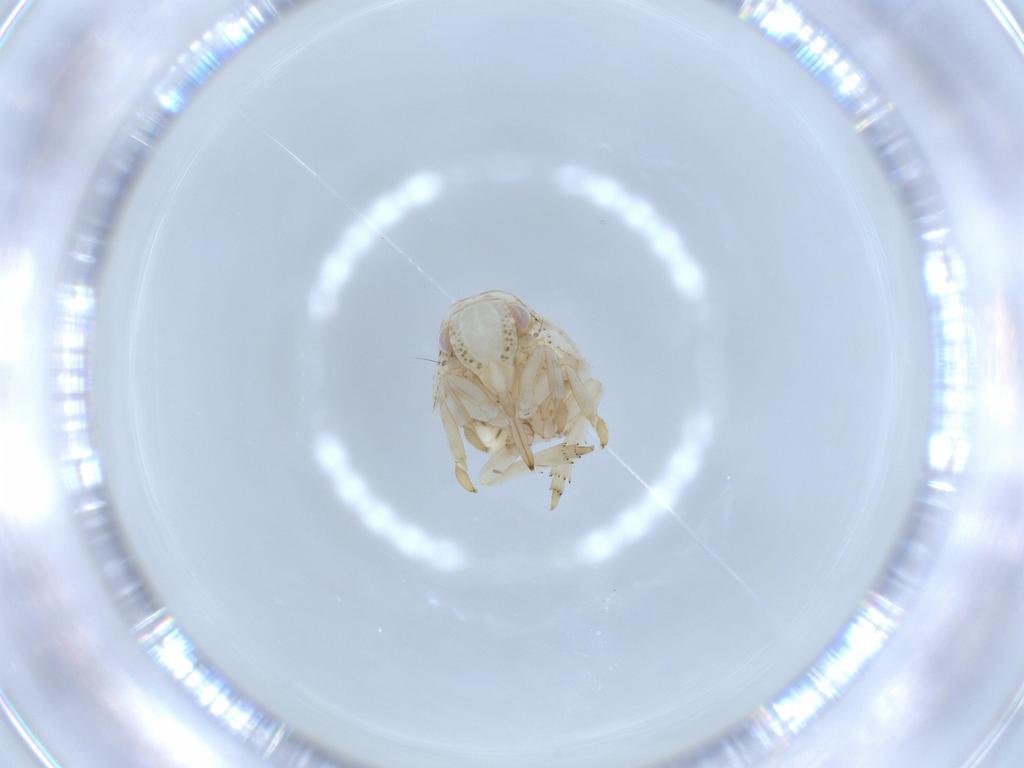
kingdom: Animalia
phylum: Arthropoda
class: Insecta
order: Hemiptera
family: Acanaloniidae
